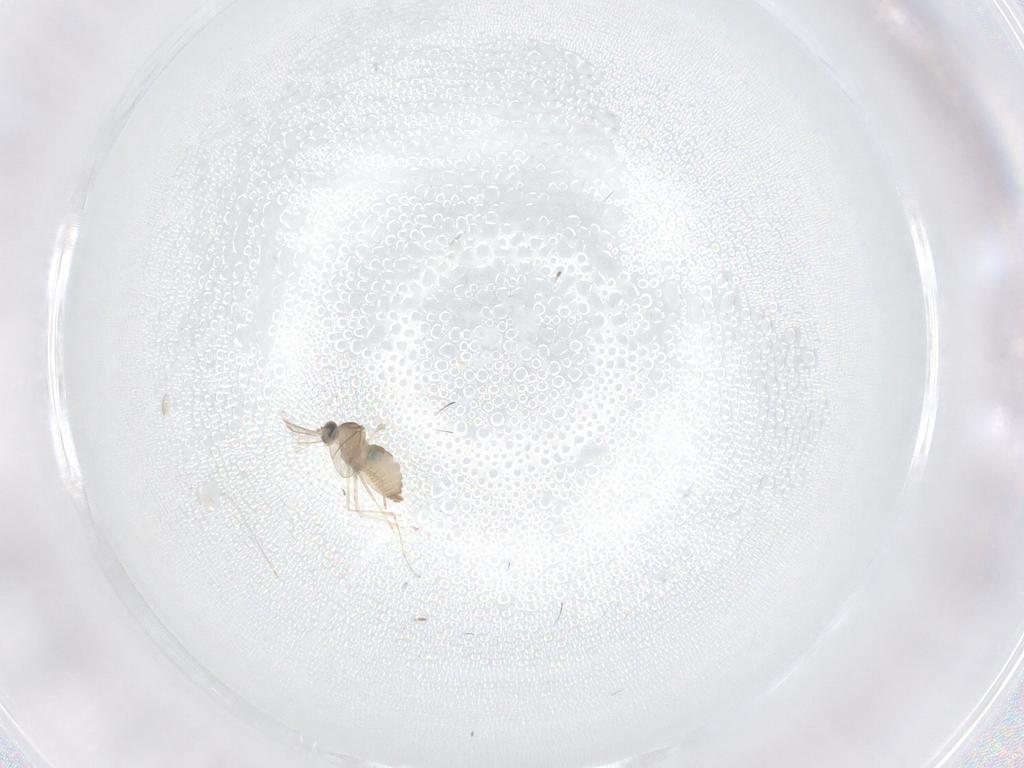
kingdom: Animalia
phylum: Arthropoda
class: Insecta
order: Diptera
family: Cecidomyiidae
